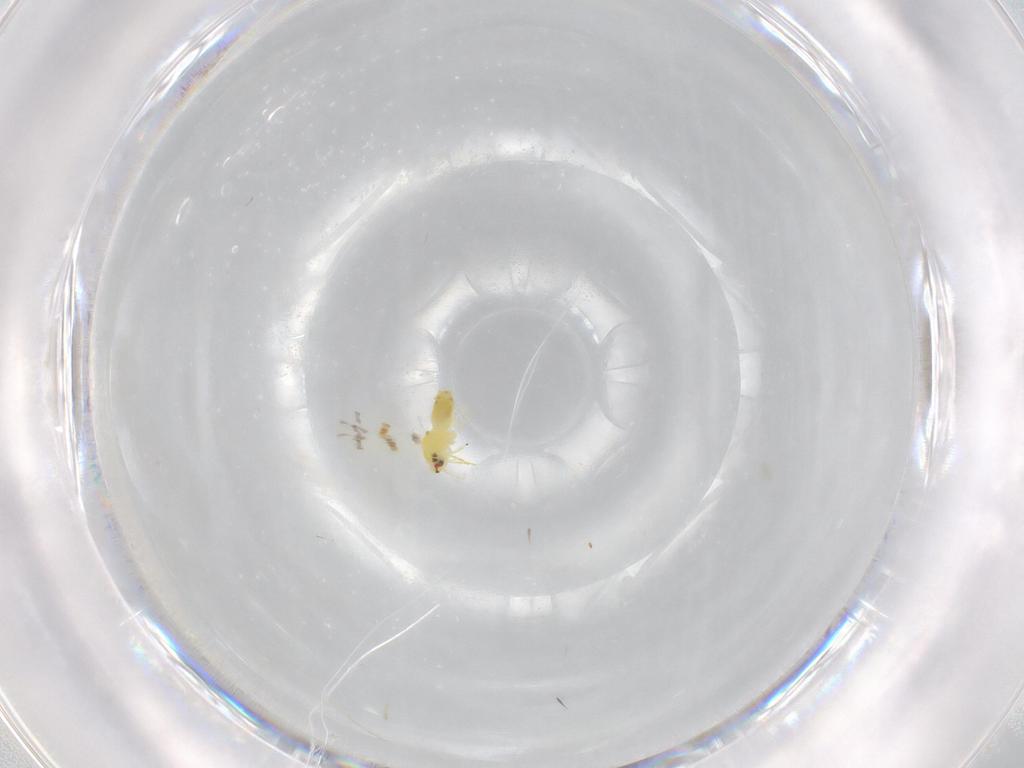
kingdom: Animalia
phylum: Arthropoda
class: Insecta
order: Hemiptera
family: Aleyrodidae
